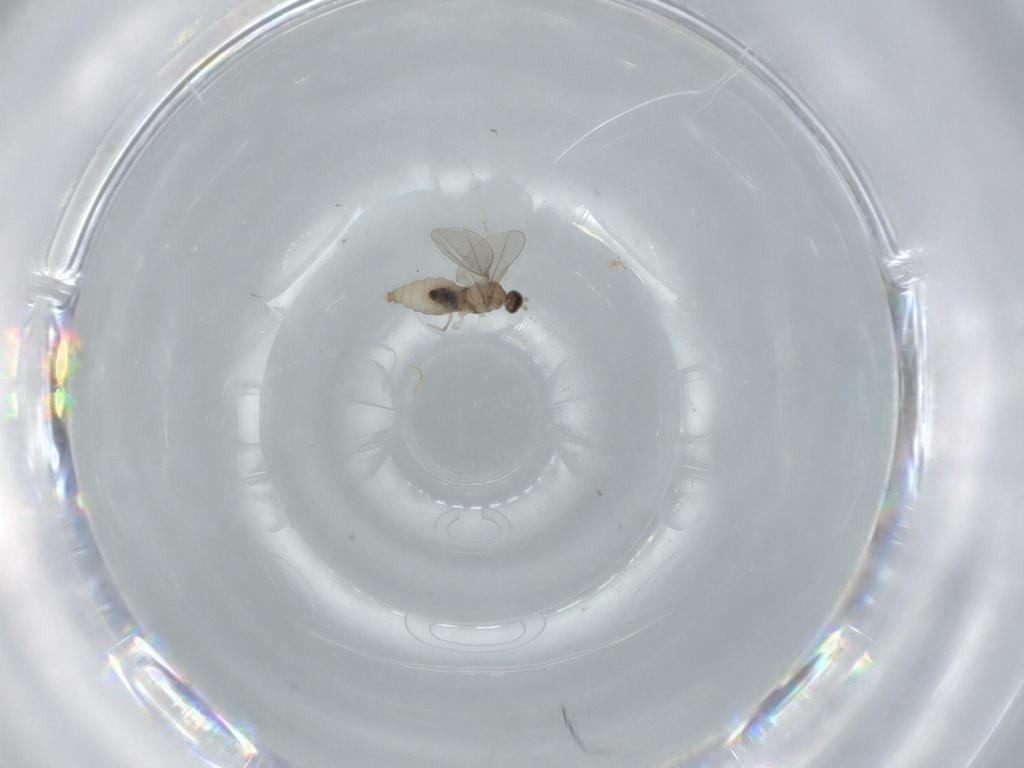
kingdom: Animalia
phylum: Arthropoda
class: Insecta
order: Diptera
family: Cecidomyiidae
